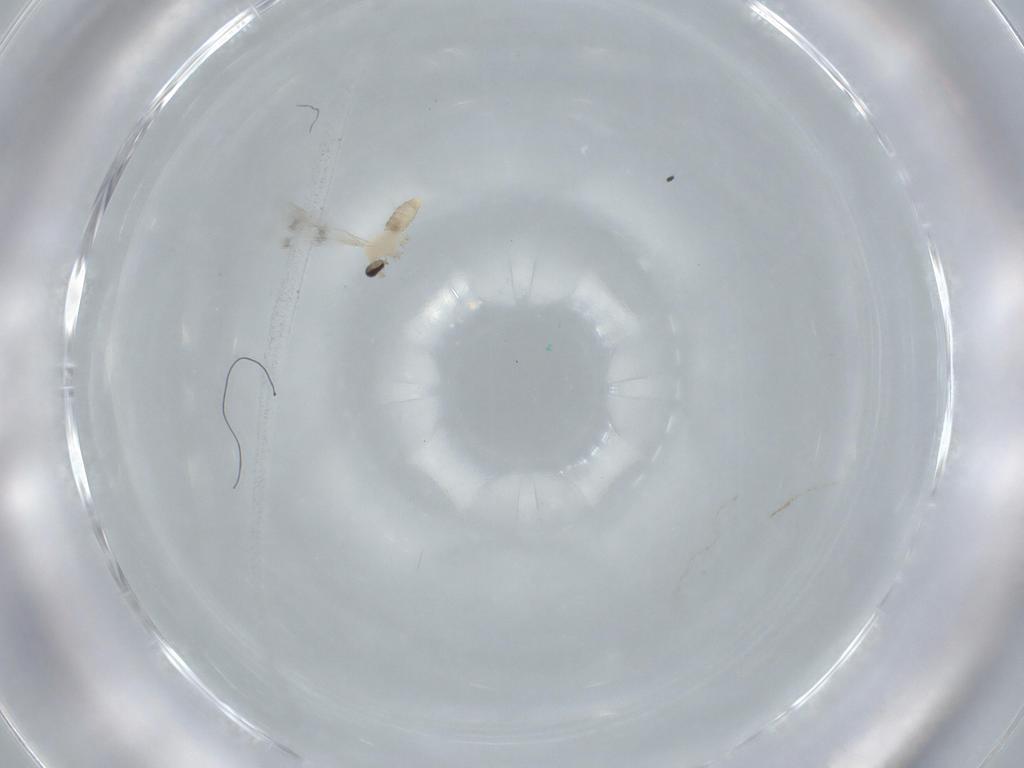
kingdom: Animalia
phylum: Arthropoda
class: Insecta
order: Diptera
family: Cecidomyiidae
